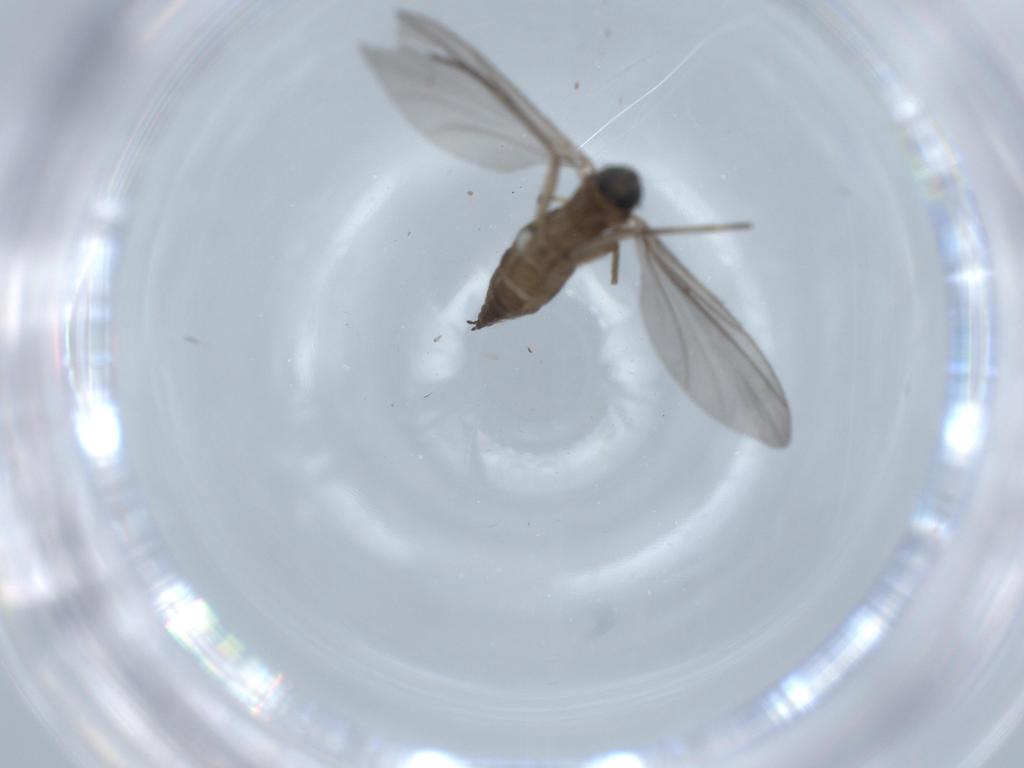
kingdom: Animalia
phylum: Arthropoda
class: Insecta
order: Diptera
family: Sciaridae
